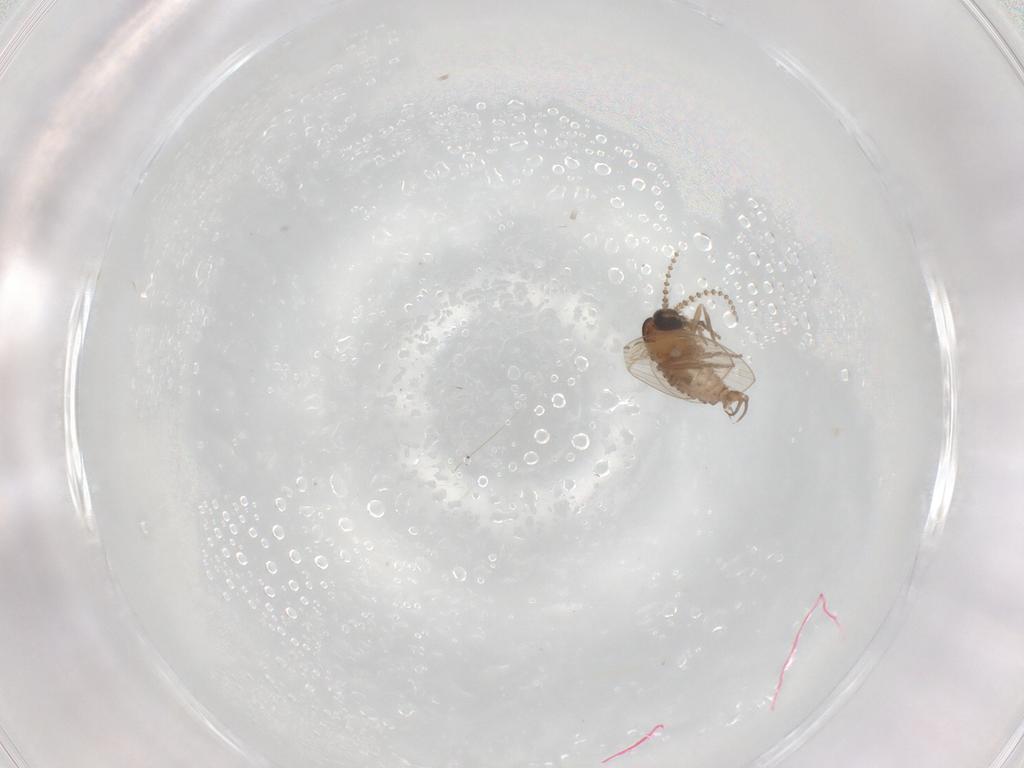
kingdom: Animalia
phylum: Arthropoda
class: Insecta
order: Diptera
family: Psychodidae
